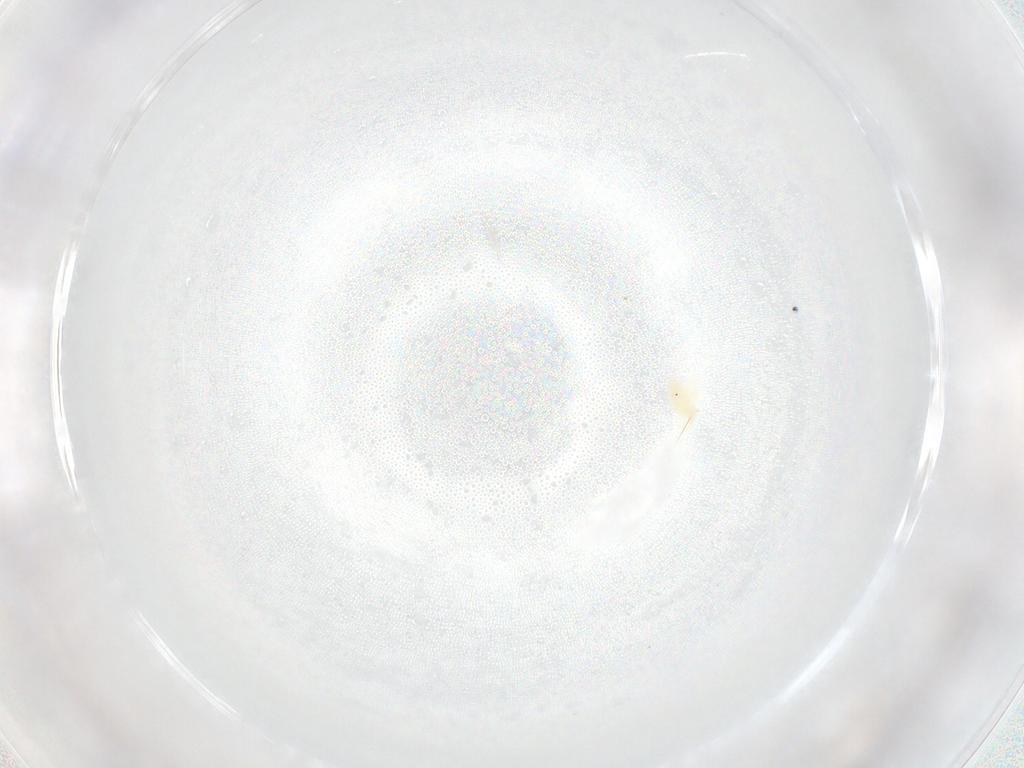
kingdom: Animalia
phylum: Arthropoda
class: Arachnida
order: Trombidiformes
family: Anystidae
